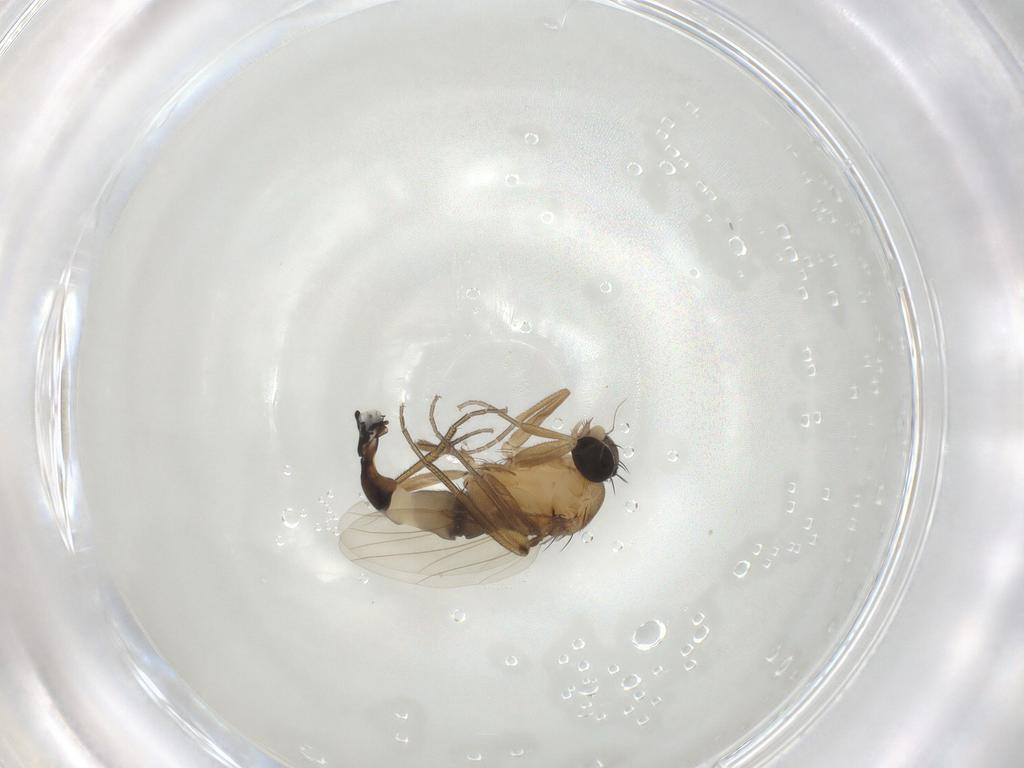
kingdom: Animalia
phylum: Arthropoda
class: Insecta
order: Diptera
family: Phoridae
